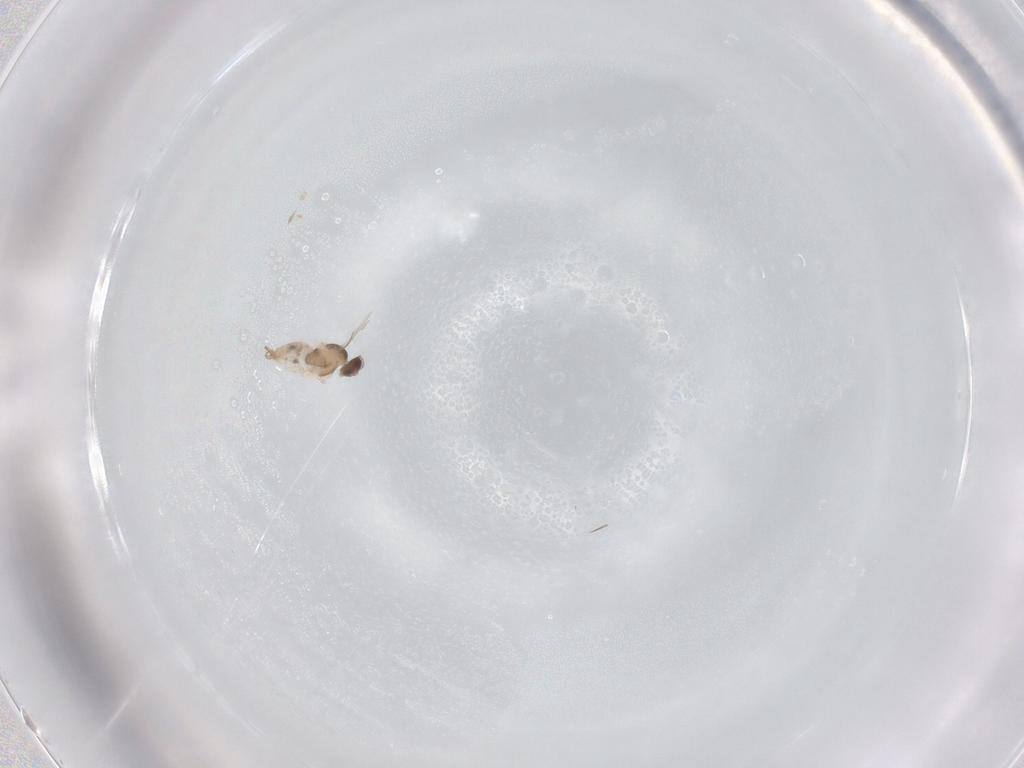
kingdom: Animalia
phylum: Arthropoda
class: Insecta
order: Diptera
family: Cecidomyiidae
